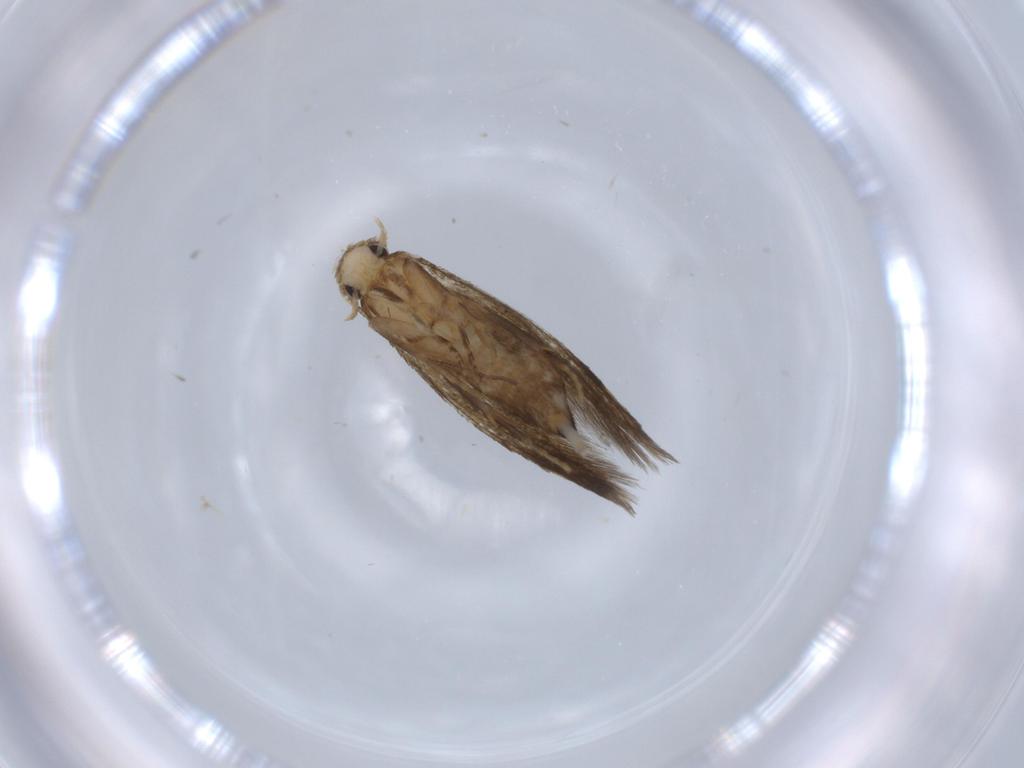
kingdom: Animalia
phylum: Arthropoda
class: Insecta
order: Lepidoptera
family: Tineidae
